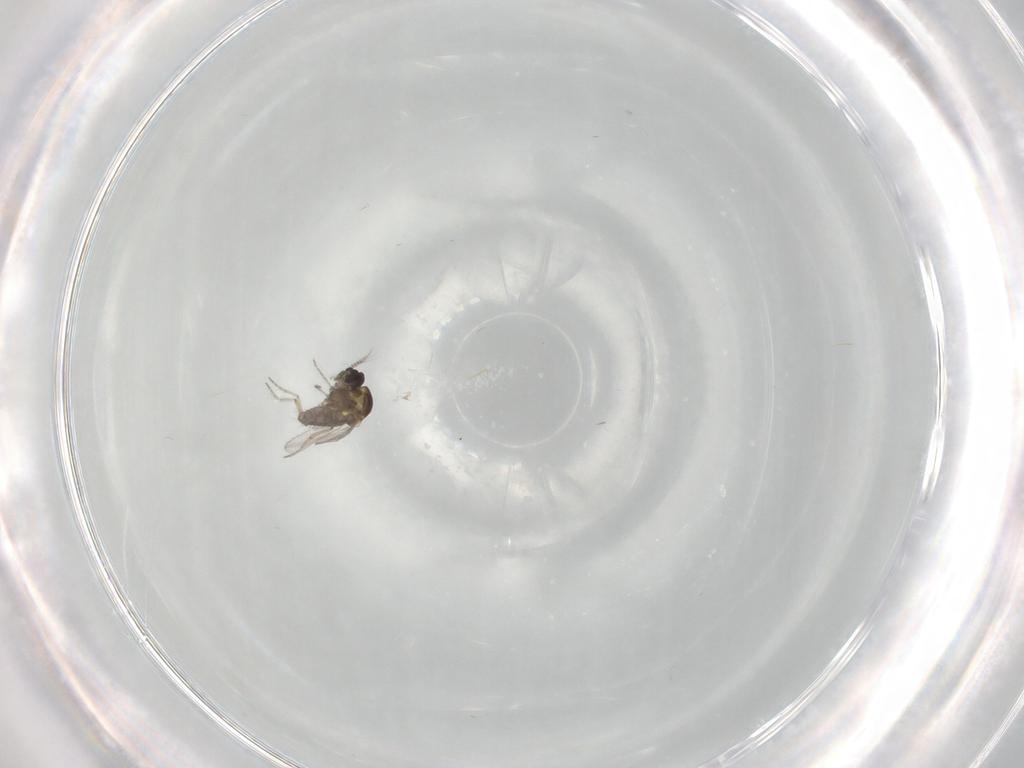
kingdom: Animalia
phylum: Arthropoda
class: Insecta
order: Diptera
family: Ceratopogonidae
